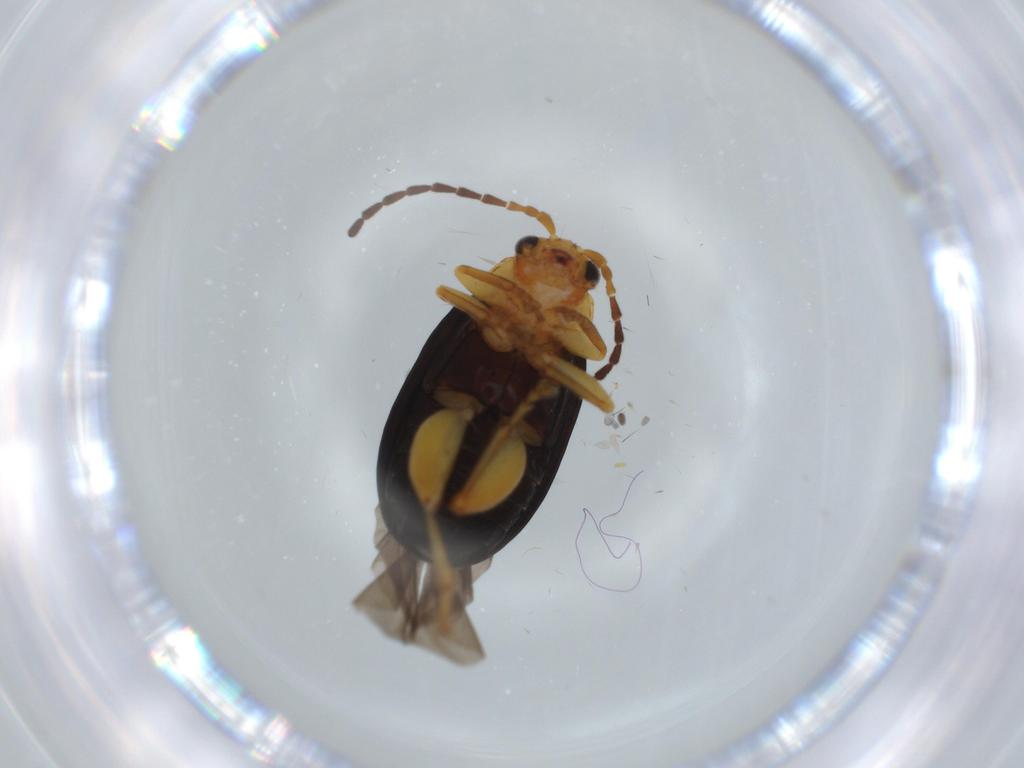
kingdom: Animalia
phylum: Arthropoda
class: Insecta
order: Coleoptera
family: Chrysomelidae
